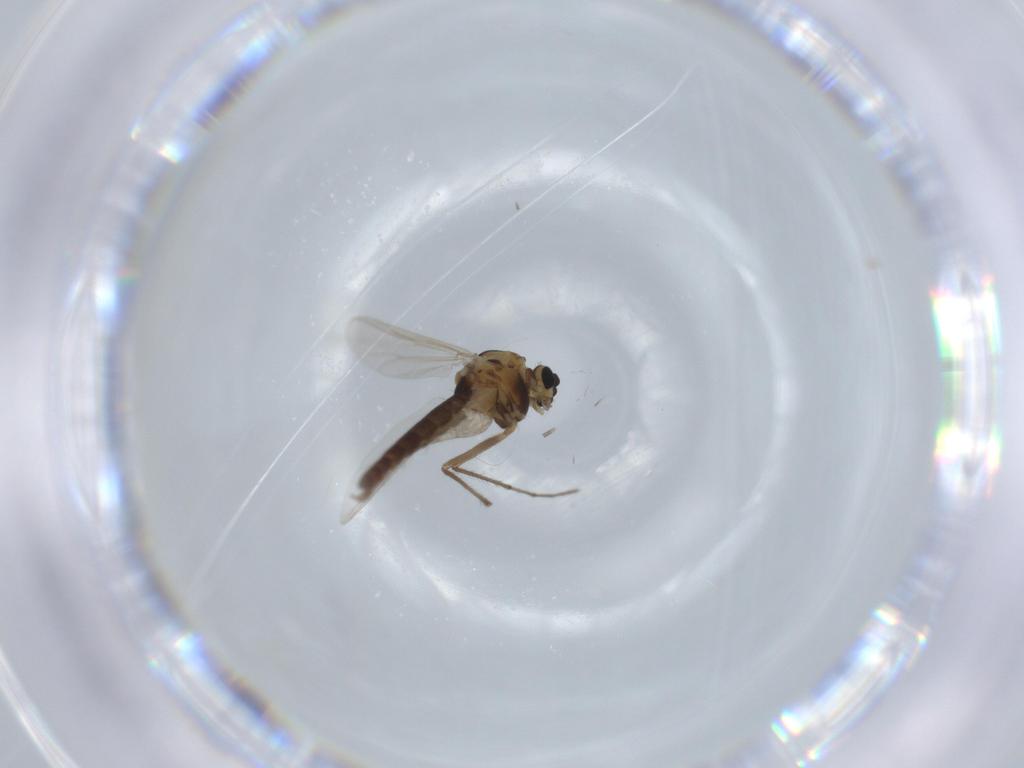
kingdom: Animalia
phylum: Arthropoda
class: Insecta
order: Diptera
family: Chironomidae
